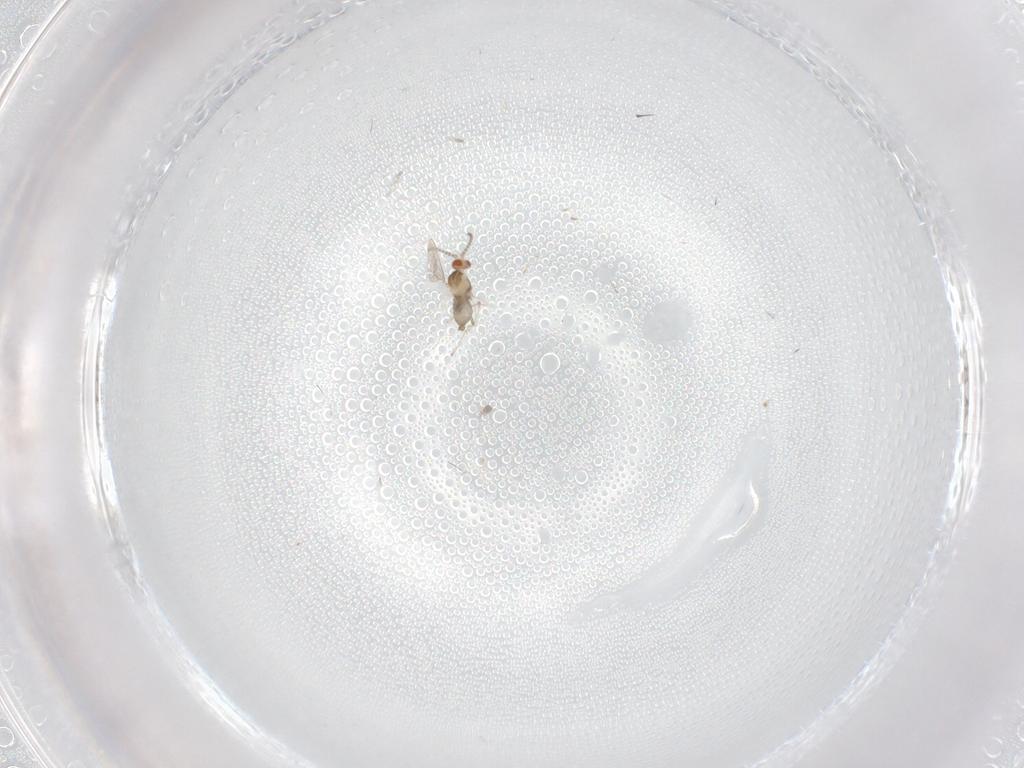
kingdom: Animalia
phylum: Arthropoda
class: Insecta
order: Diptera
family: Cecidomyiidae
